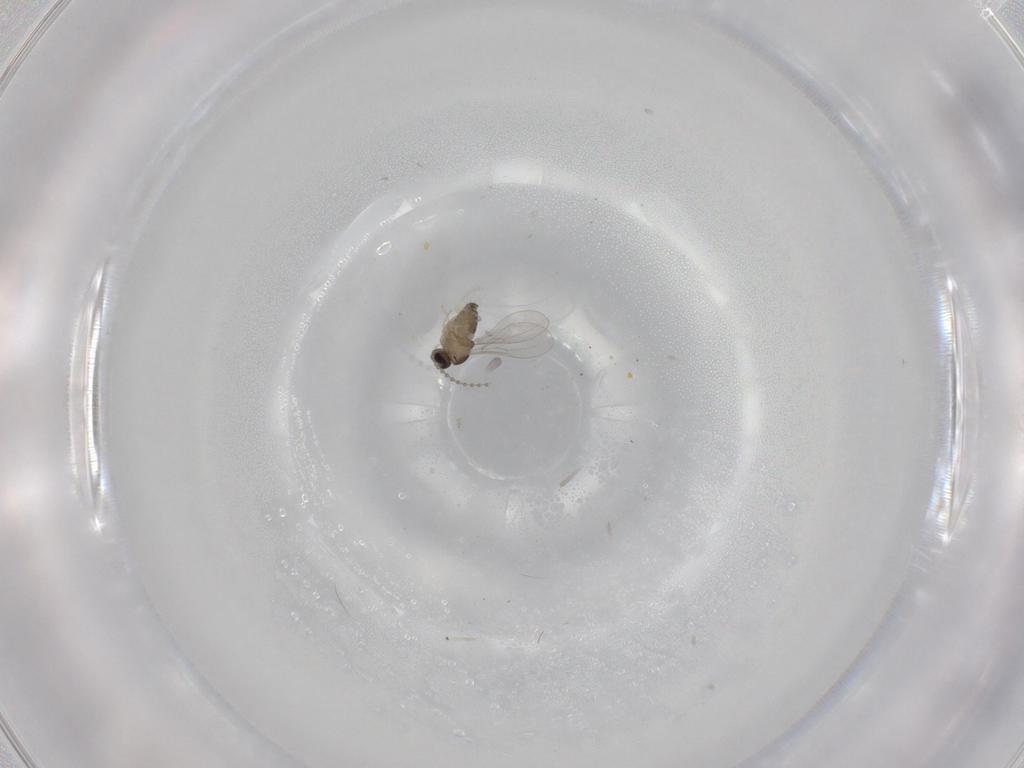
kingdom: Animalia
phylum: Arthropoda
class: Insecta
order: Diptera
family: Cecidomyiidae
